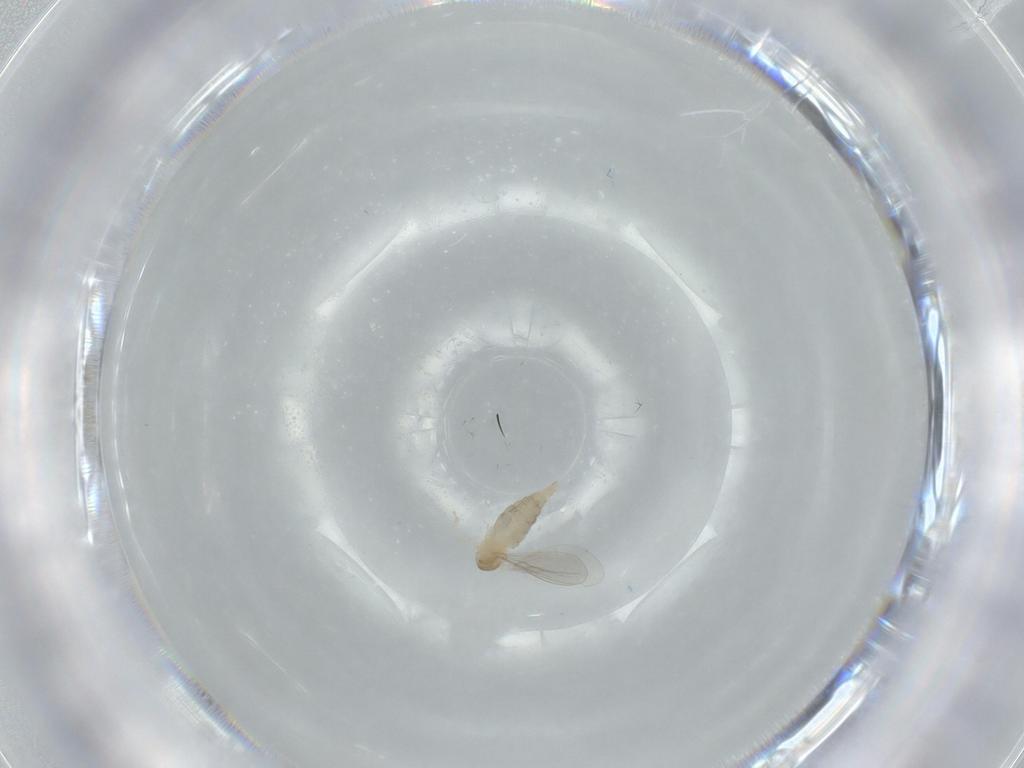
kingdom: Animalia
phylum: Arthropoda
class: Insecta
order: Diptera
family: Cecidomyiidae
